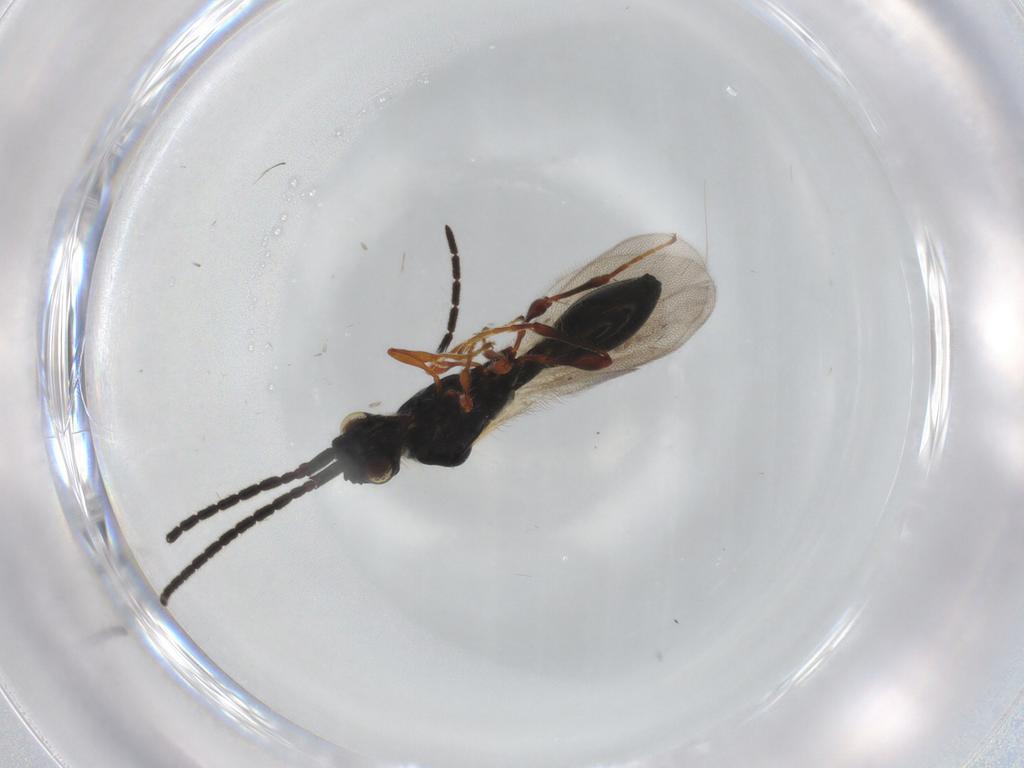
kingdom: Animalia
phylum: Arthropoda
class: Insecta
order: Hymenoptera
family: Diapriidae
